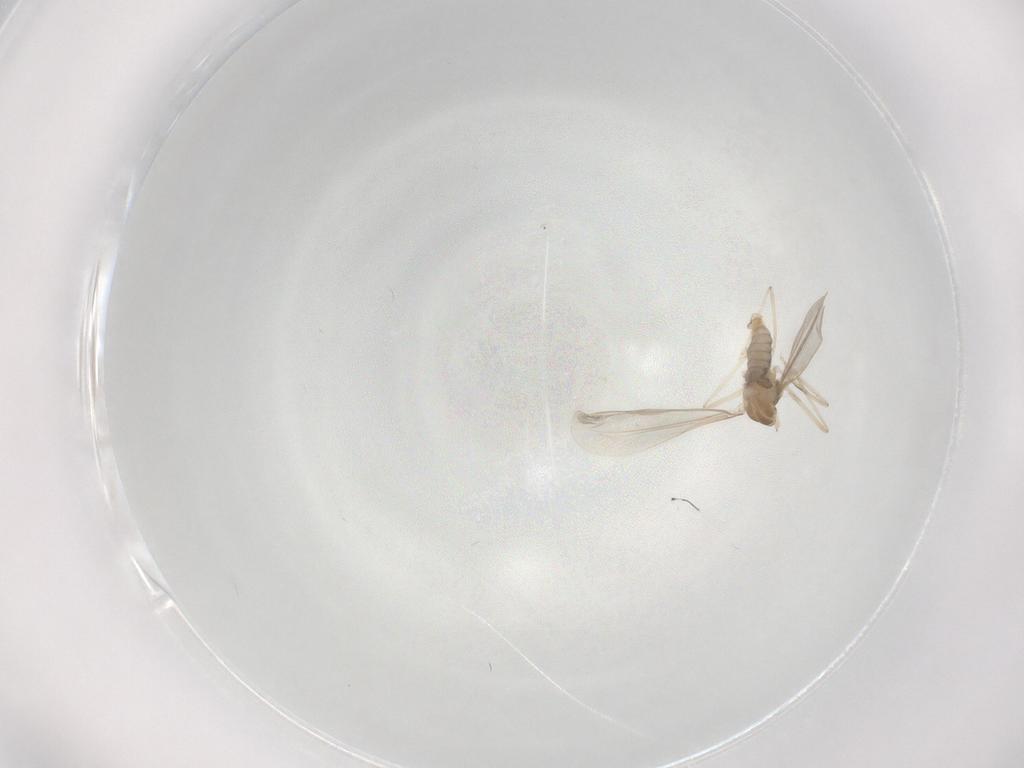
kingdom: Animalia
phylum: Arthropoda
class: Insecta
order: Diptera
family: Cecidomyiidae
